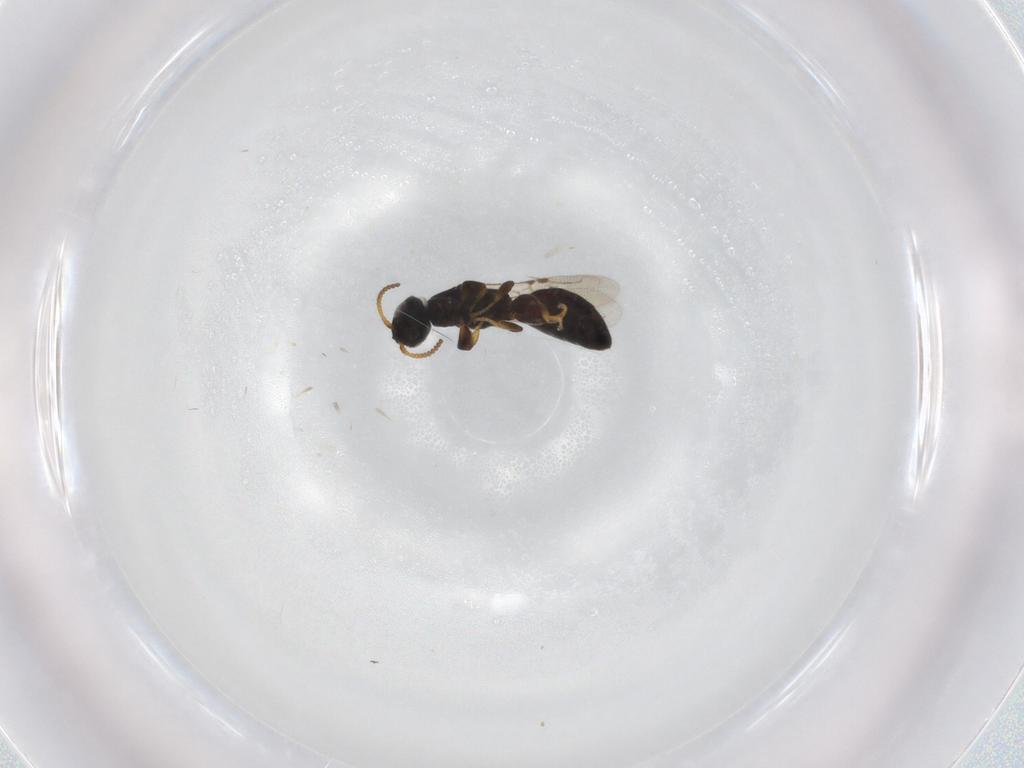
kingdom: Animalia
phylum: Arthropoda
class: Insecta
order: Hymenoptera
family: Bethylidae
